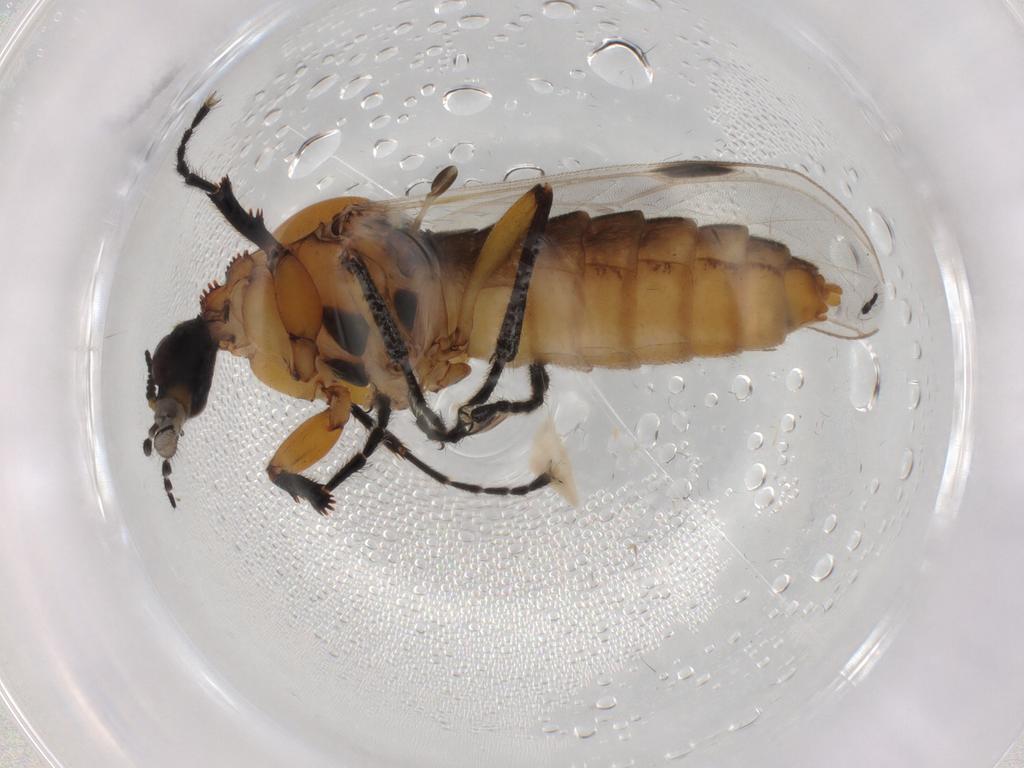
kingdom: Animalia
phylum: Arthropoda
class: Insecta
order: Diptera
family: Bibionidae
